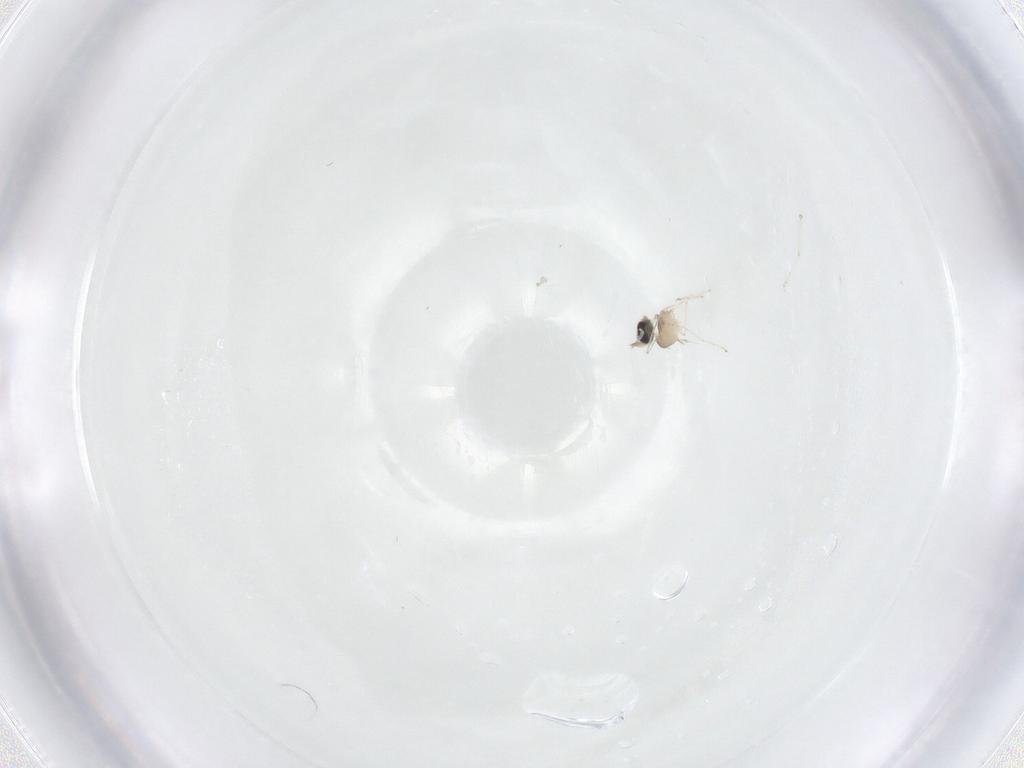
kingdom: Animalia
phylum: Arthropoda
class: Insecta
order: Diptera
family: Cecidomyiidae
